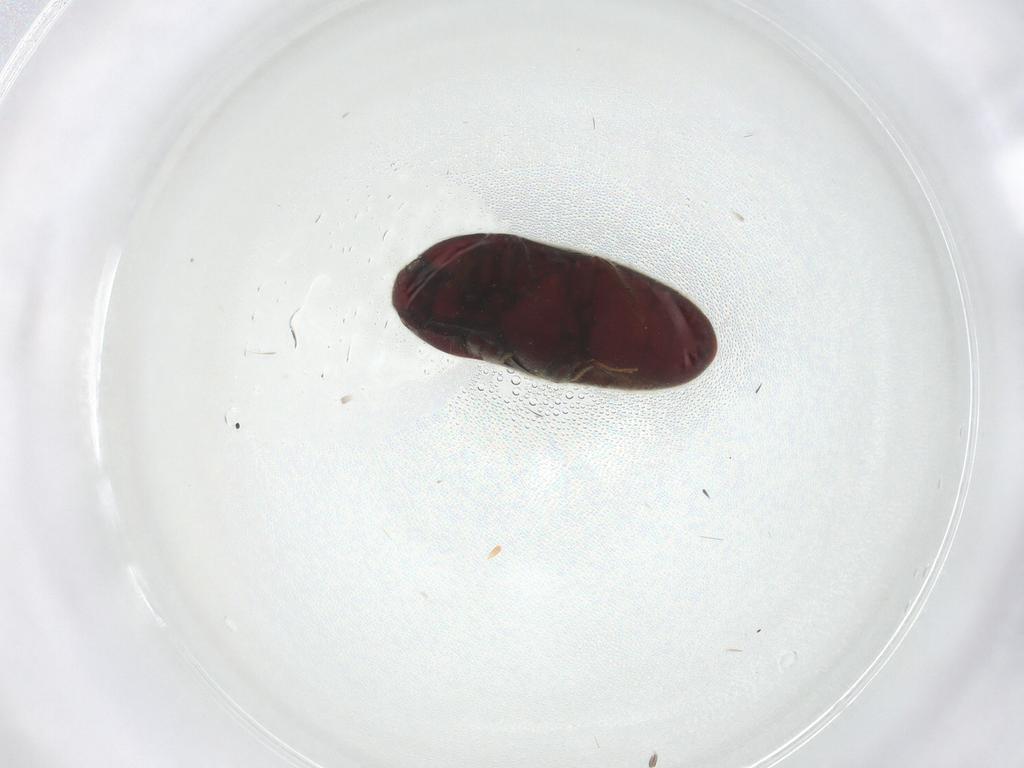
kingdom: Animalia
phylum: Arthropoda
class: Insecta
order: Coleoptera
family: Throscidae
